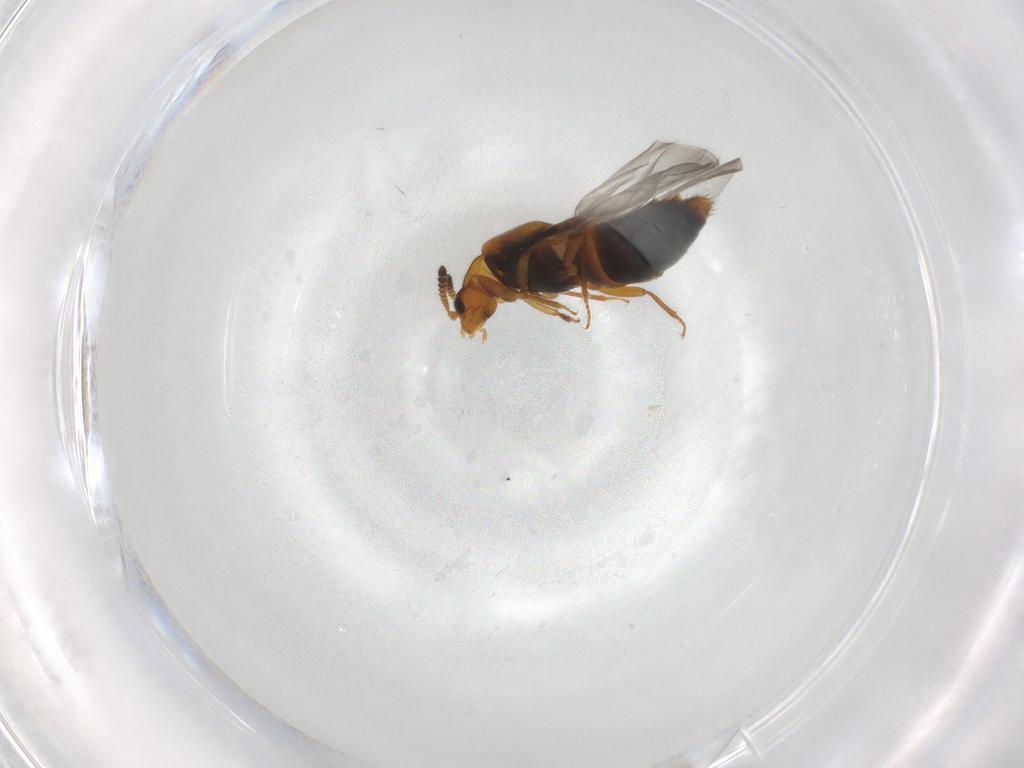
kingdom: Animalia
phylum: Arthropoda
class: Insecta
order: Coleoptera
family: Staphylinidae
